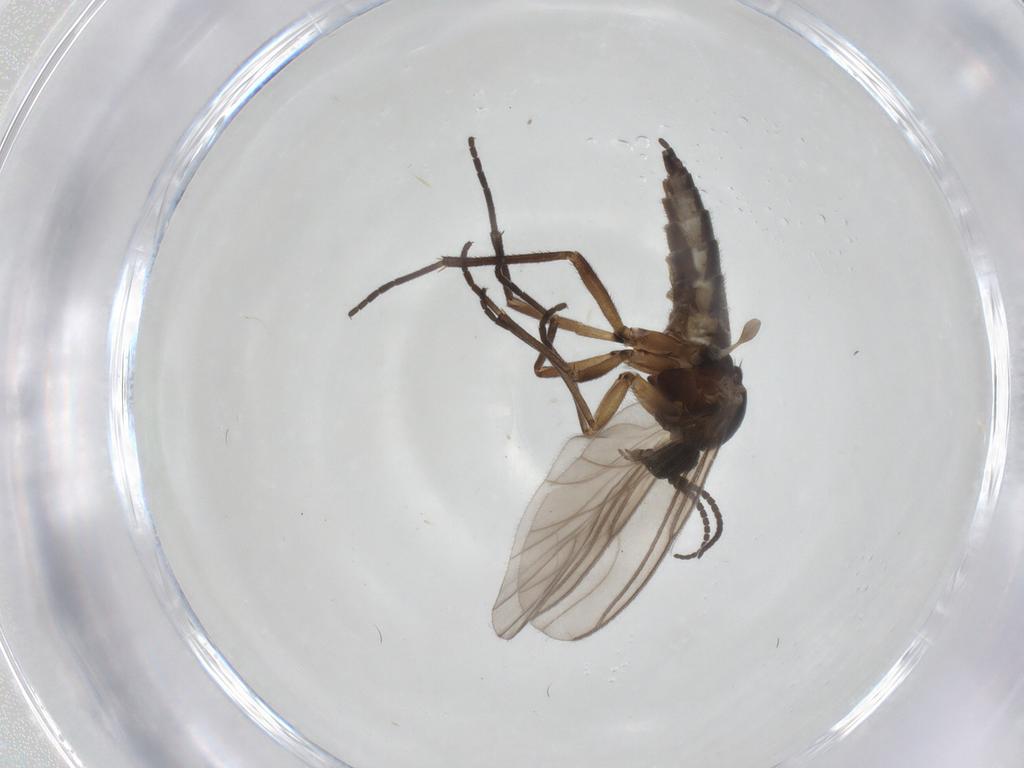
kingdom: Animalia
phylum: Arthropoda
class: Insecta
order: Diptera
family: Sciaridae
